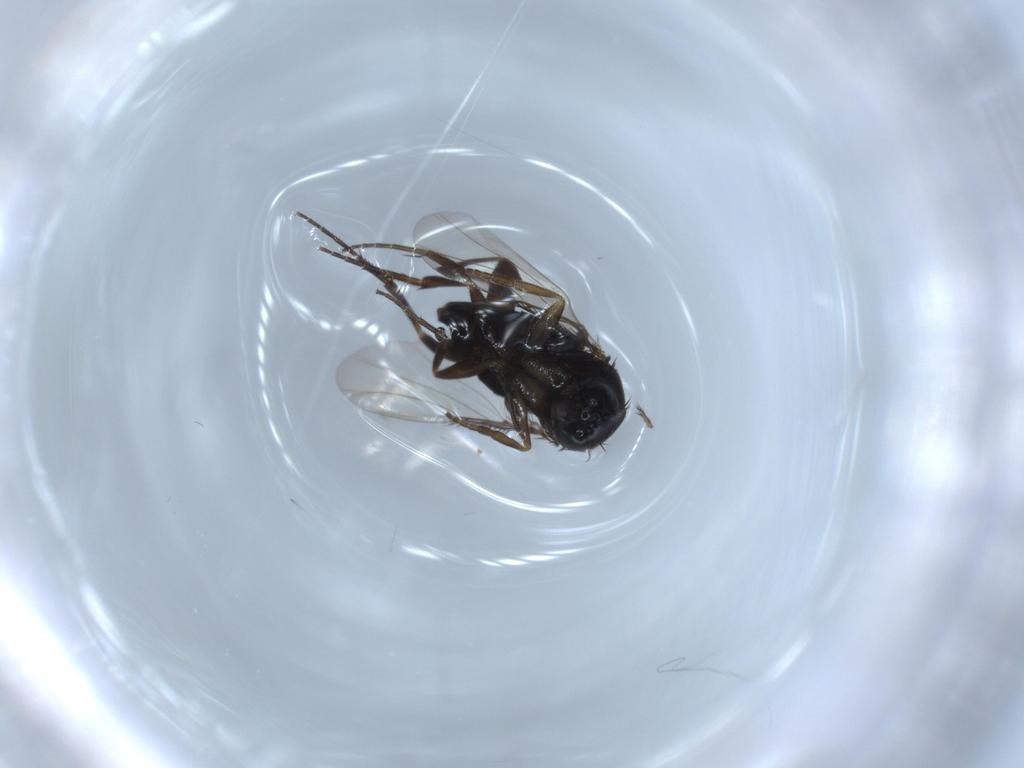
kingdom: Animalia
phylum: Arthropoda
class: Insecta
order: Diptera
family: Phoridae
